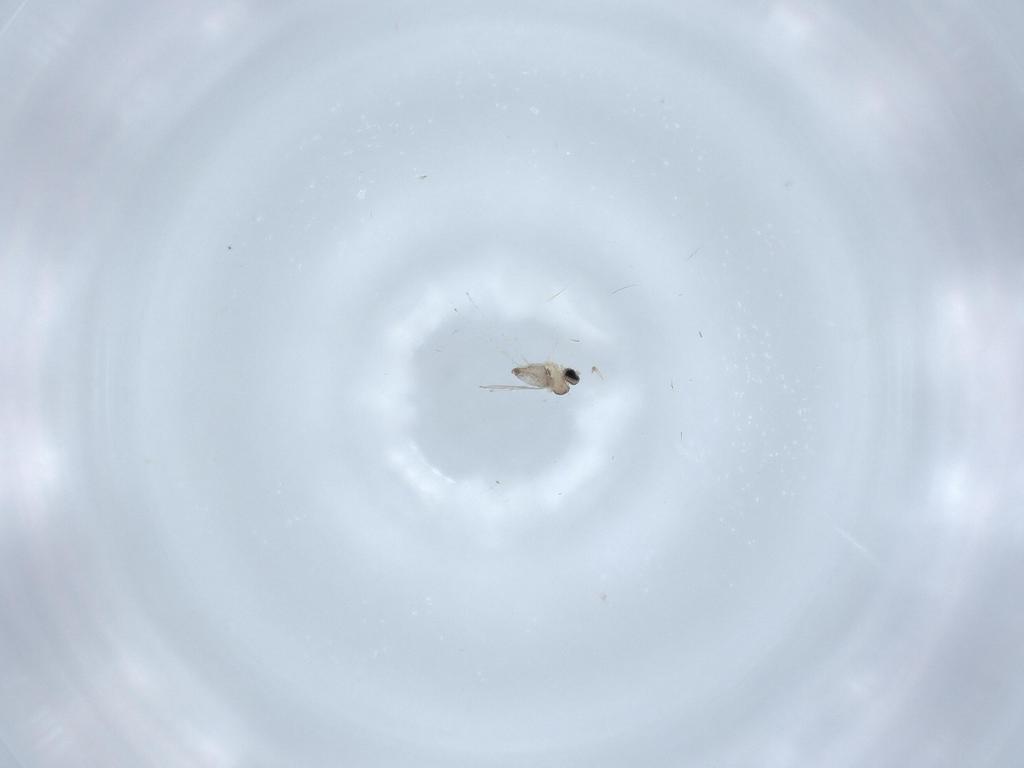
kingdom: Animalia
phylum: Arthropoda
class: Insecta
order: Diptera
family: Cecidomyiidae
